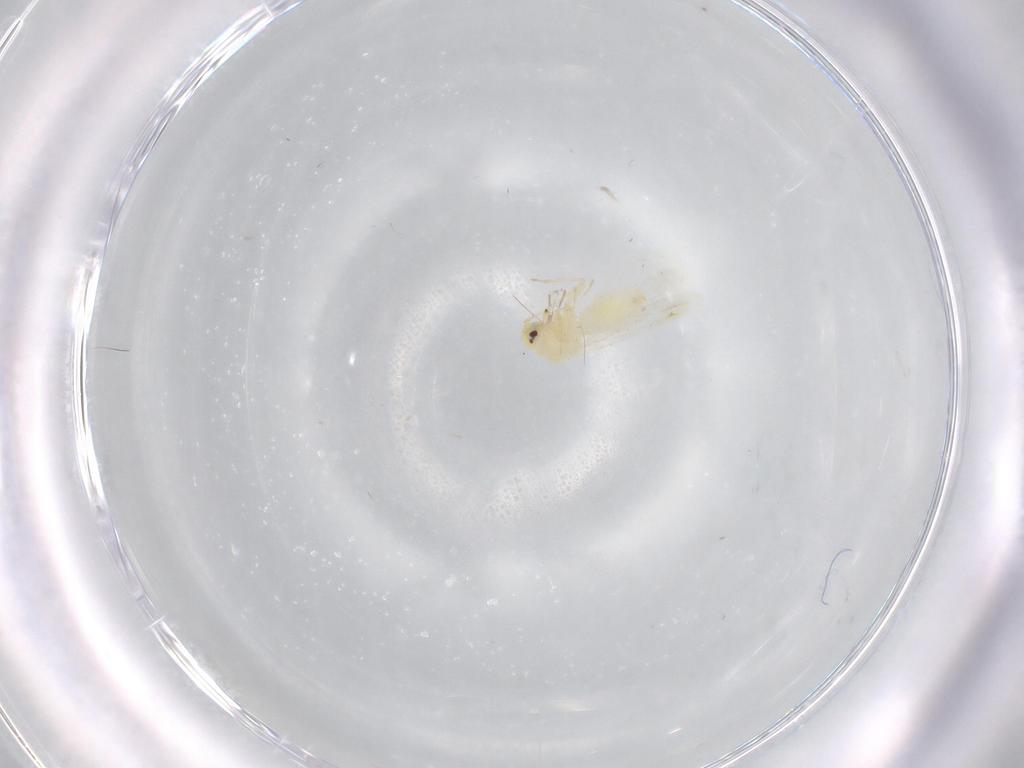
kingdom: Animalia
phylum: Arthropoda
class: Insecta
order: Hemiptera
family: Aleyrodidae
